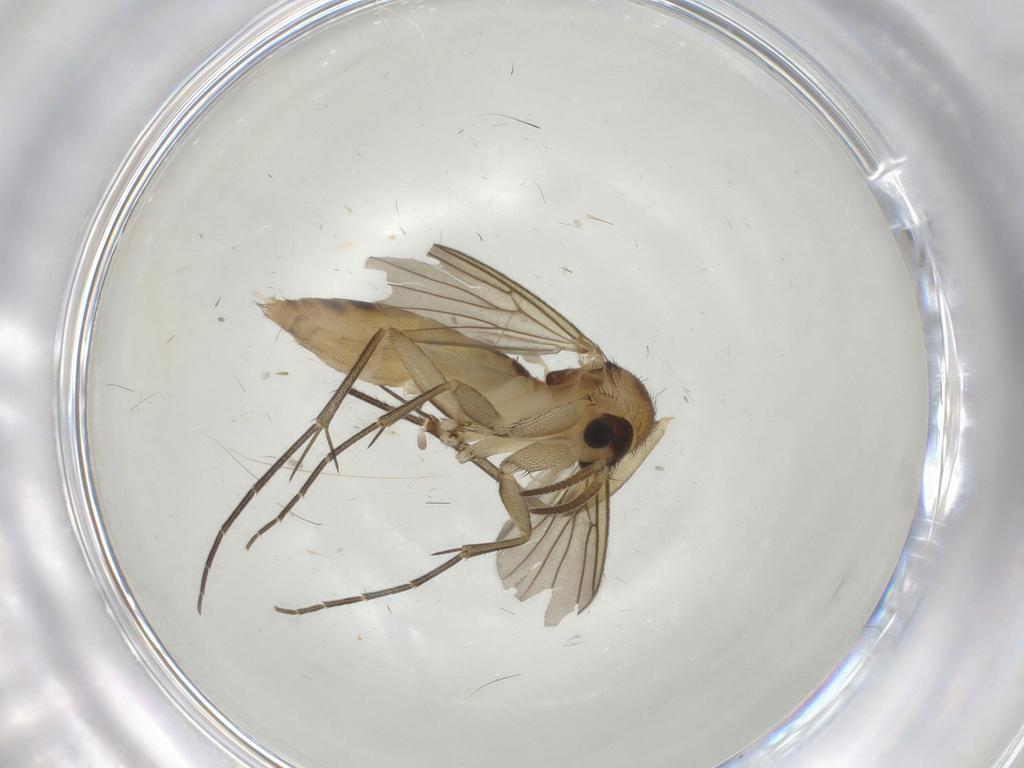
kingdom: Animalia
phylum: Arthropoda
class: Insecta
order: Diptera
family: Mycetophilidae
